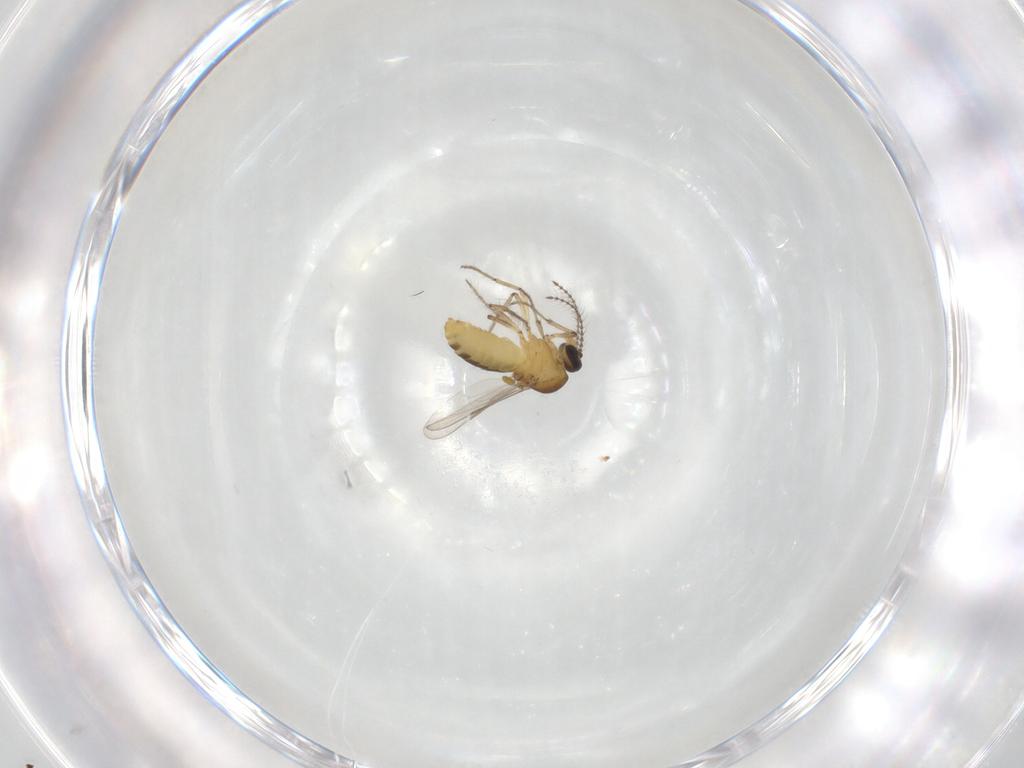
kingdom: Animalia
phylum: Arthropoda
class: Insecta
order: Diptera
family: Ceratopogonidae
